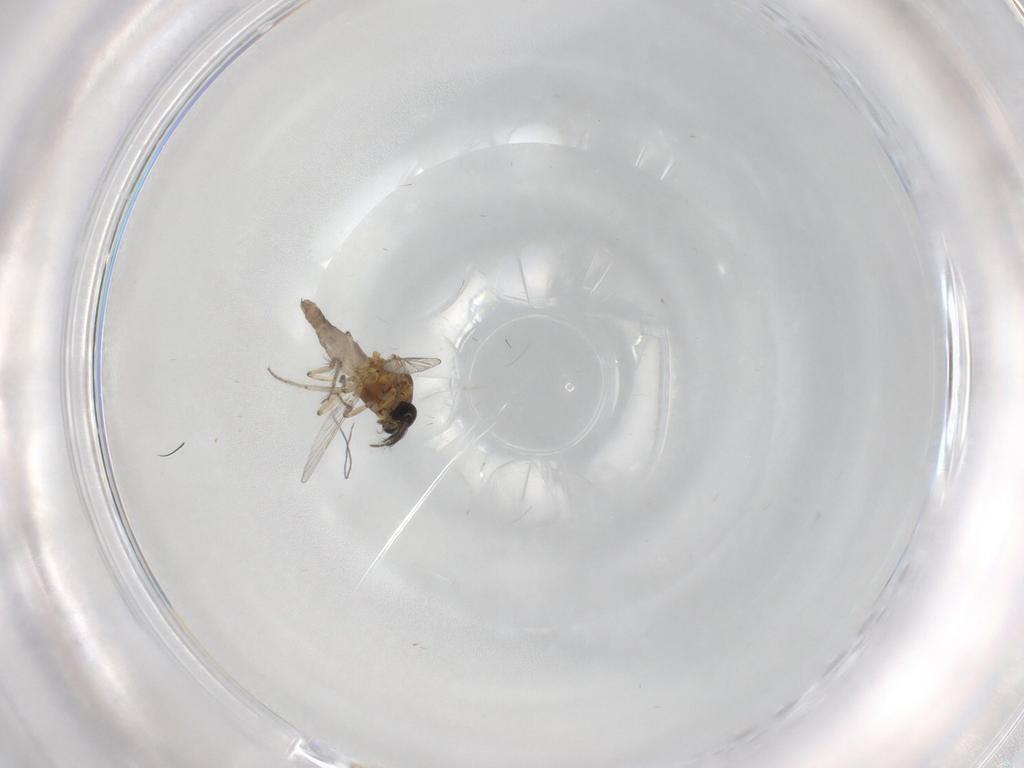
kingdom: Animalia
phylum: Arthropoda
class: Insecta
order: Diptera
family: Ceratopogonidae
